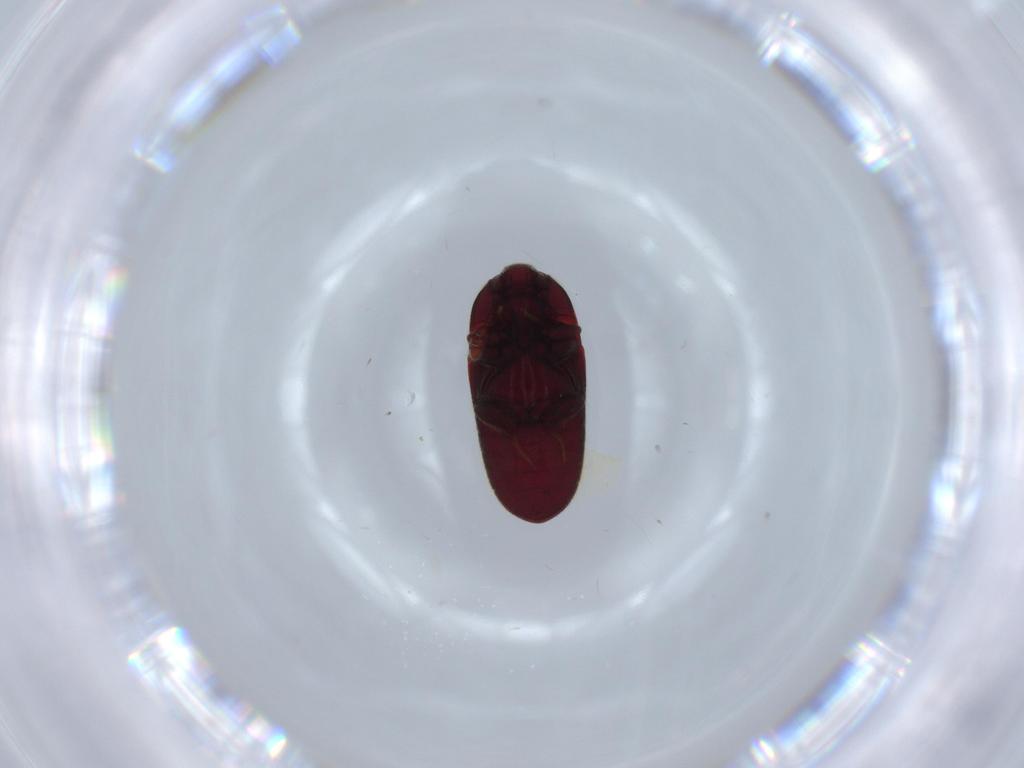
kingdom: Animalia
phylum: Arthropoda
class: Insecta
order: Coleoptera
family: Throscidae
